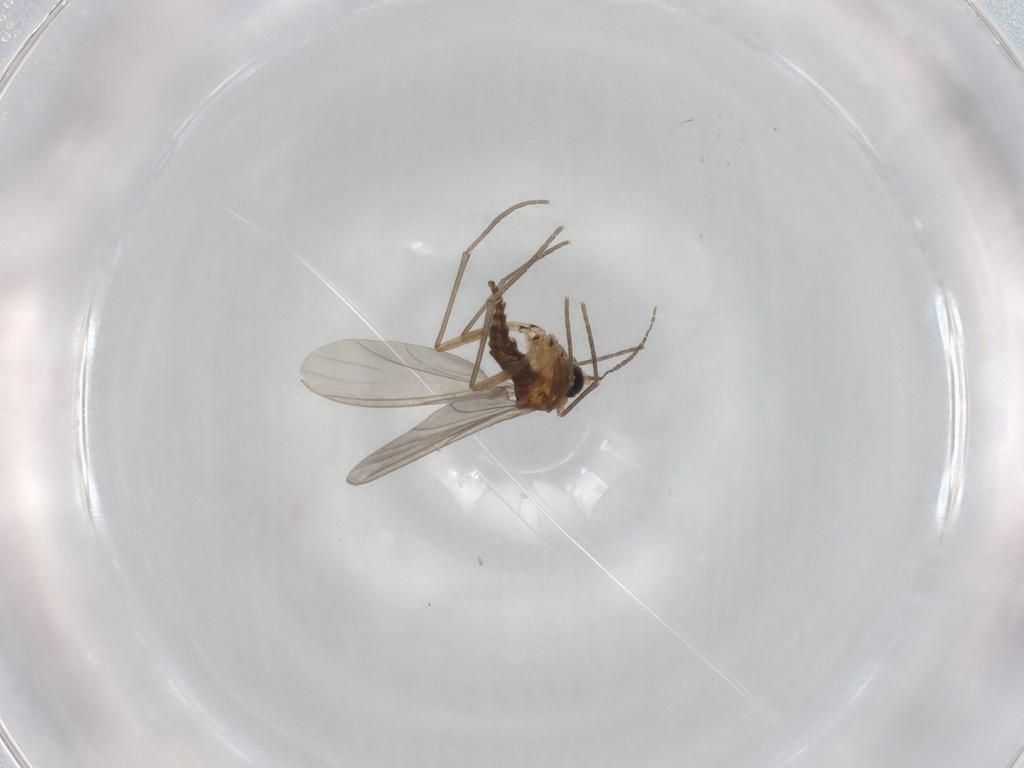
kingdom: Animalia
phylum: Arthropoda
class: Insecta
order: Diptera
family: Sciaridae
